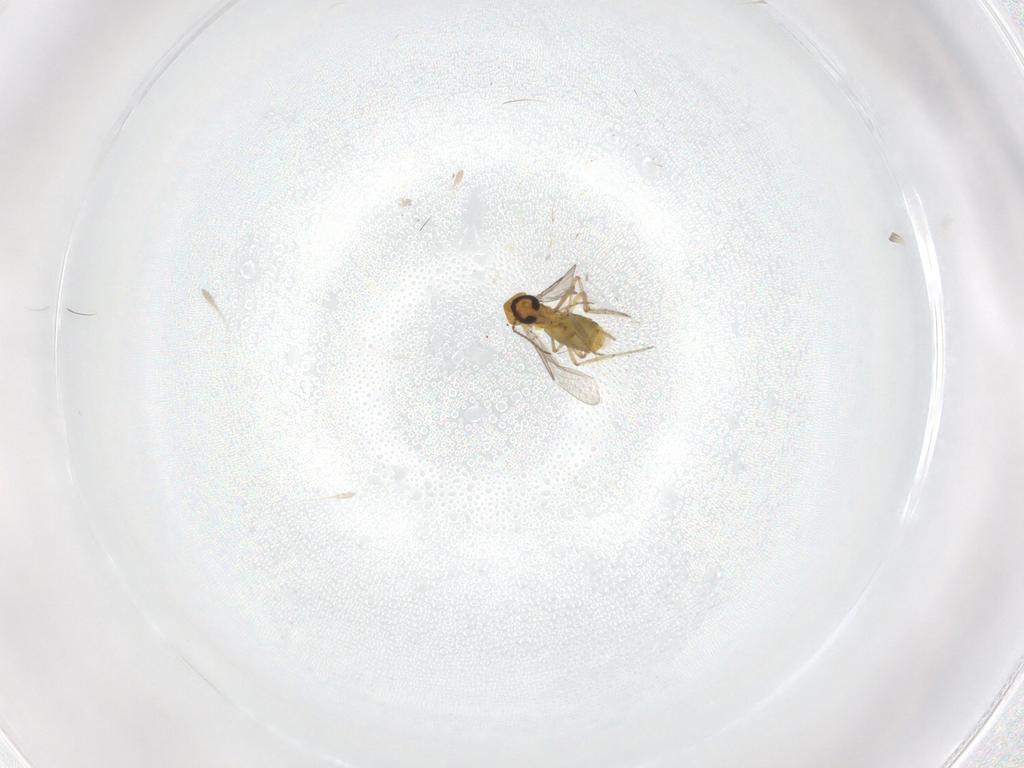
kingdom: Animalia
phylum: Arthropoda
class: Insecta
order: Diptera
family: Ceratopogonidae
